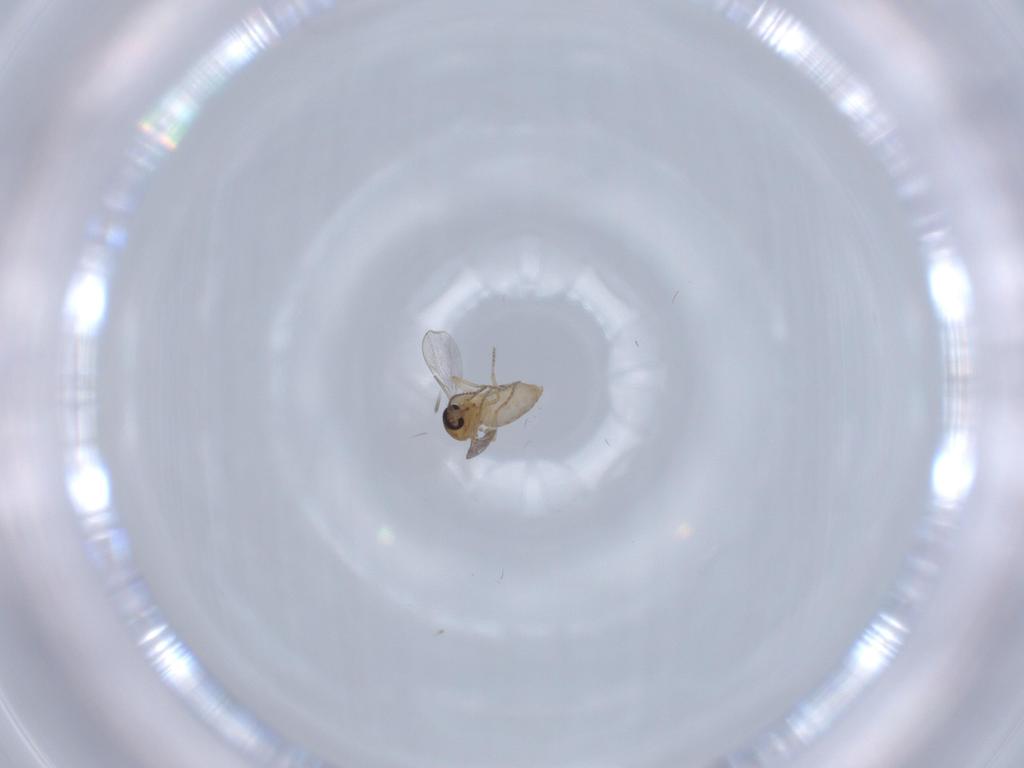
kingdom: Animalia
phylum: Arthropoda
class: Insecta
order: Diptera
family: Ceratopogonidae
